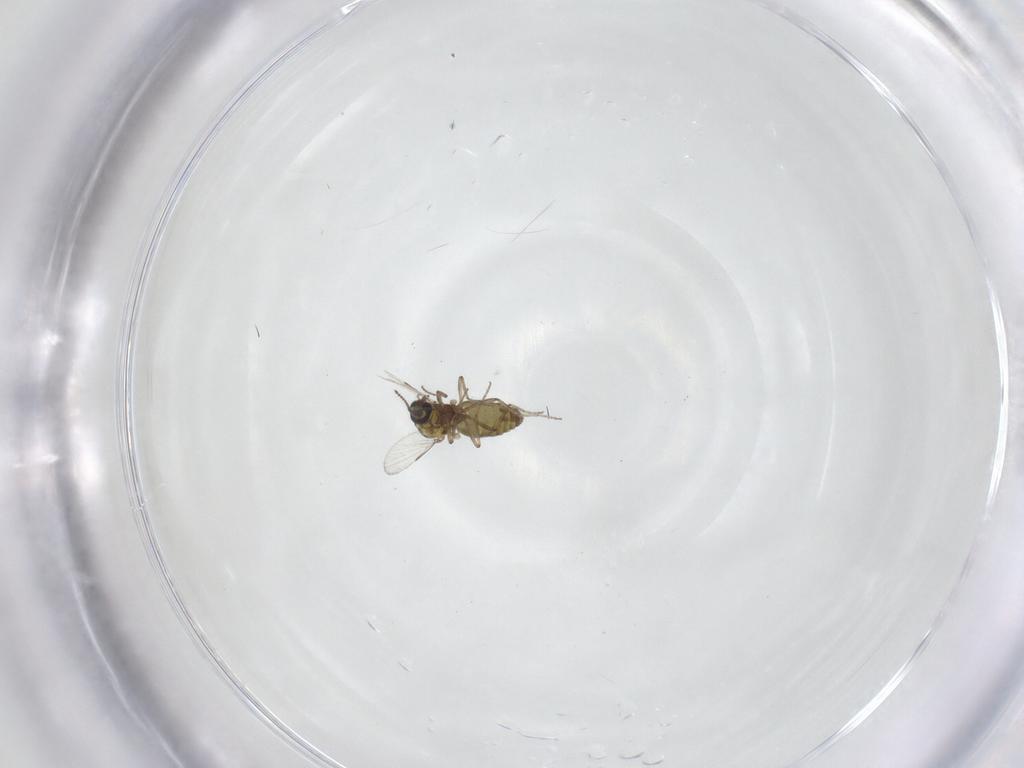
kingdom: Animalia
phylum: Arthropoda
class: Insecta
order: Diptera
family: Ceratopogonidae
